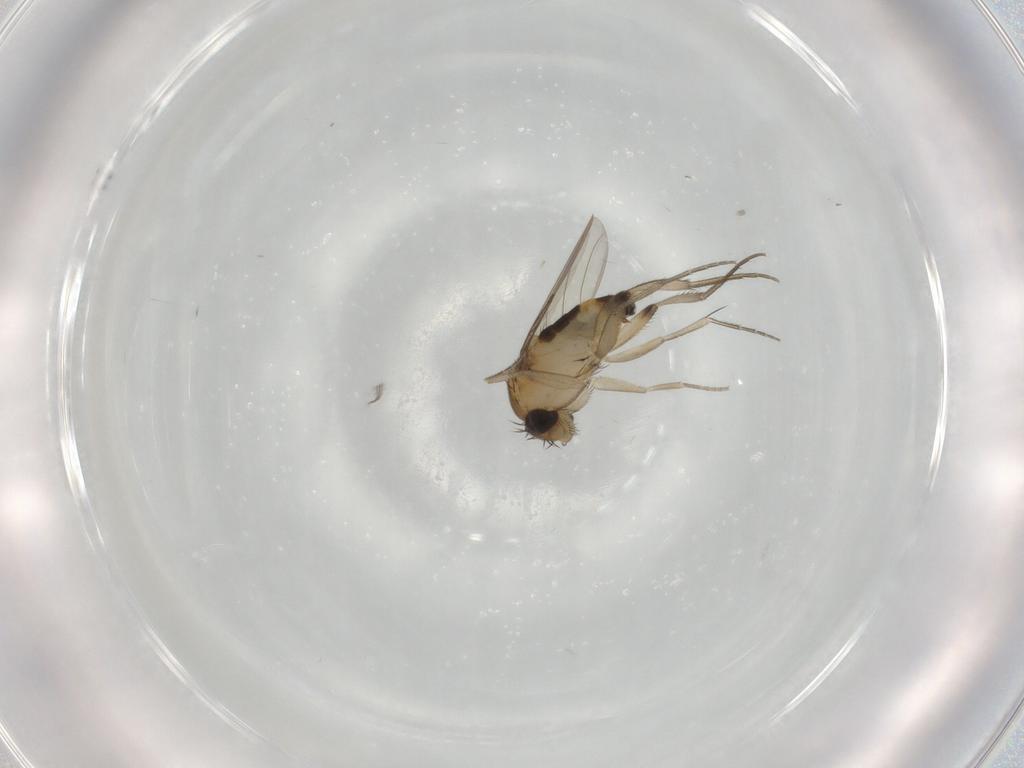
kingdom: Animalia
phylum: Arthropoda
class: Insecta
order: Diptera
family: Phoridae
